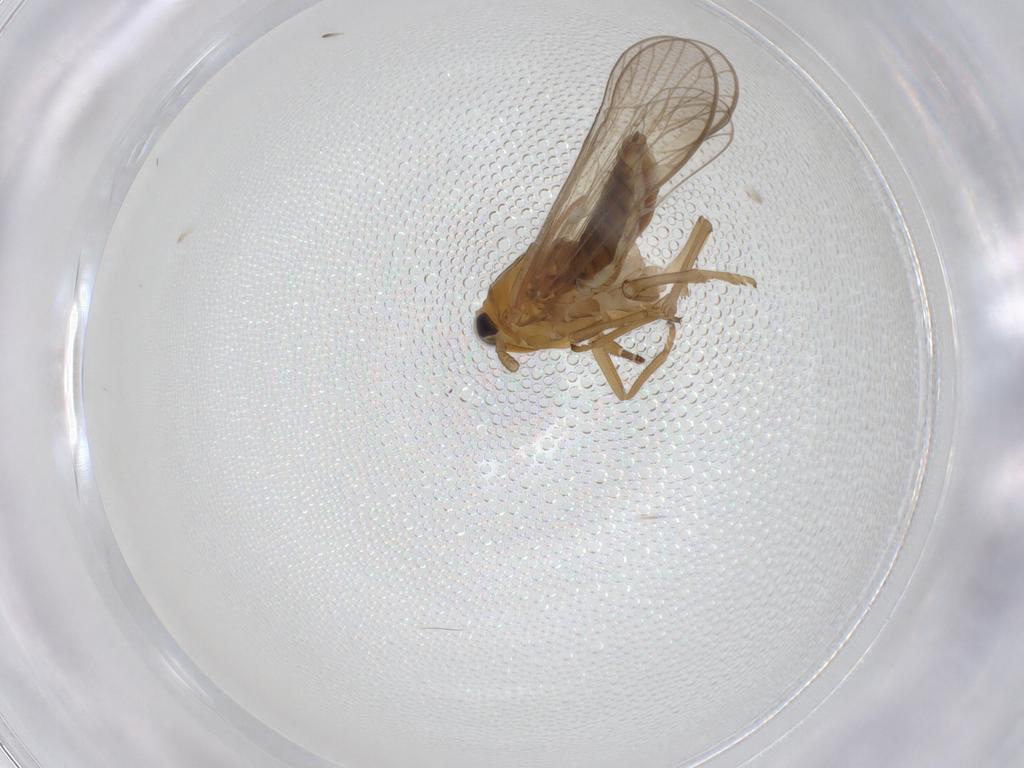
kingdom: Animalia
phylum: Arthropoda
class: Insecta
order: Hemiptera
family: Delphacidae
